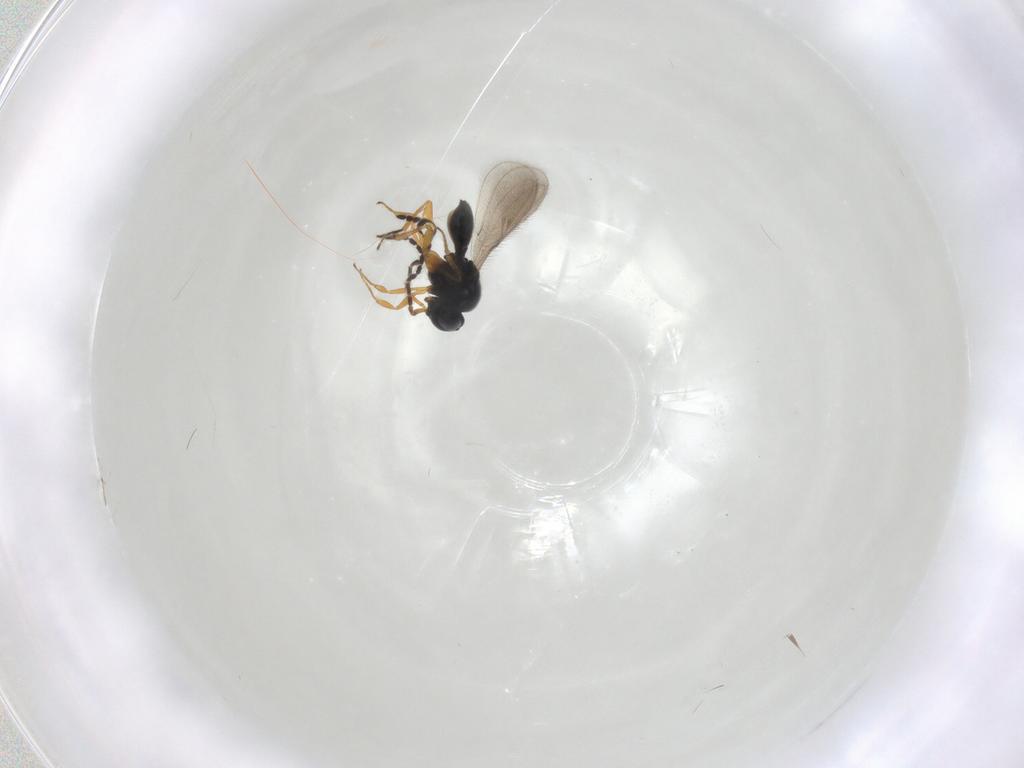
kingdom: Animalia
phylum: Arthropoda
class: Insecta
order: Hymenoptera
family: Scelionidae
